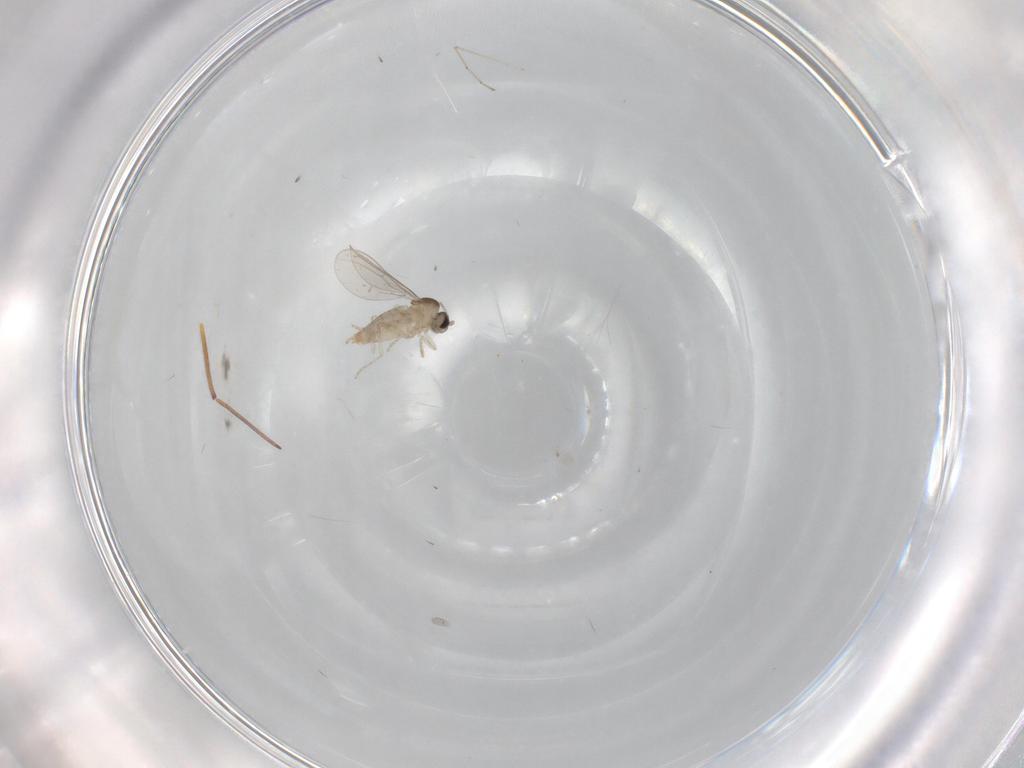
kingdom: Animalia
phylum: Arthropoda
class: Insecta
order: Diptera
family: Cecidomyiidae
